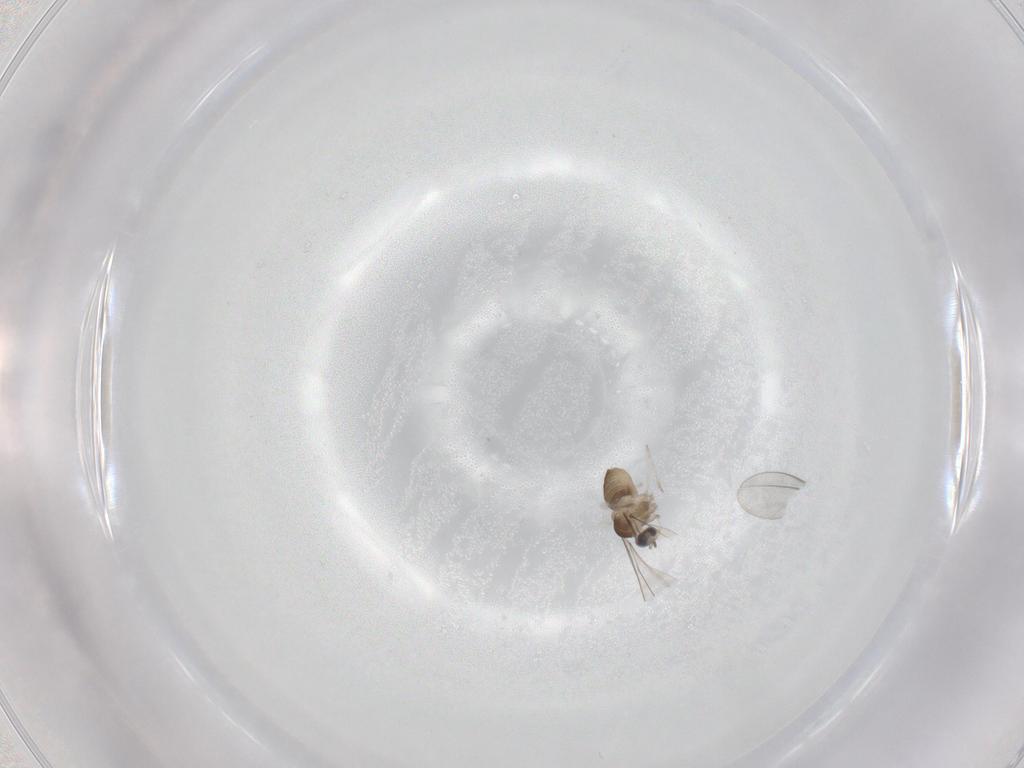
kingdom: Animalia
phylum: Arthropoda
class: Insecta
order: Diptera
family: Cecidomyiidae
